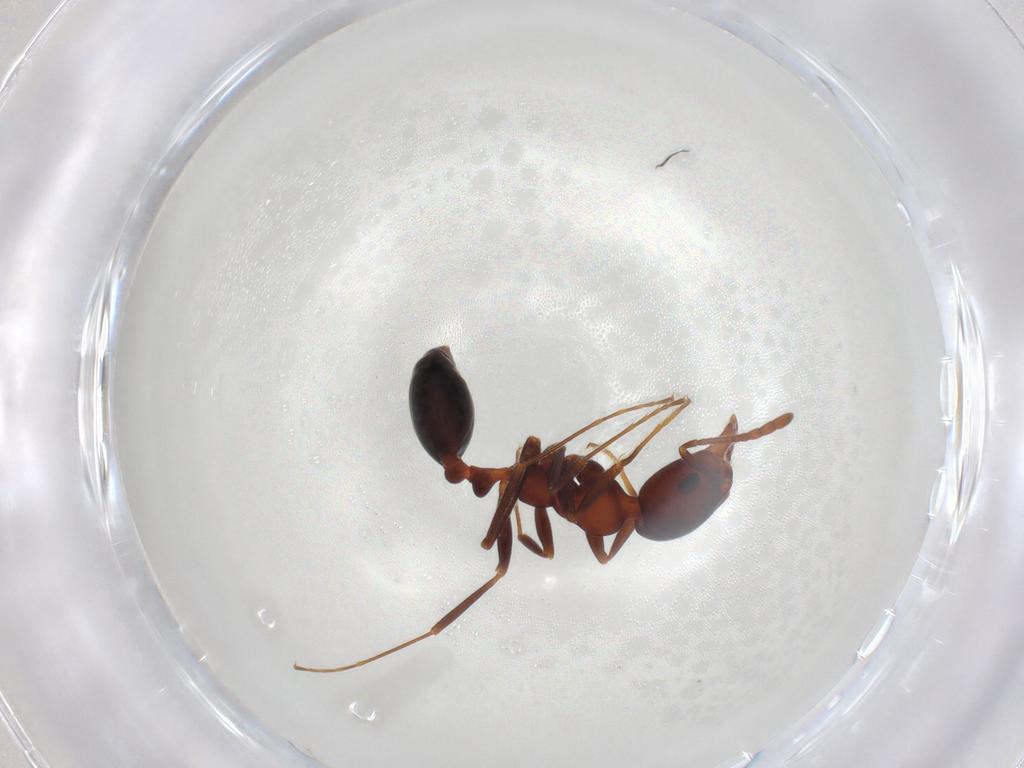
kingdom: Animalia
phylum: Arthropoda
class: Insecta
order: Hymenoptera
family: Formicidae
